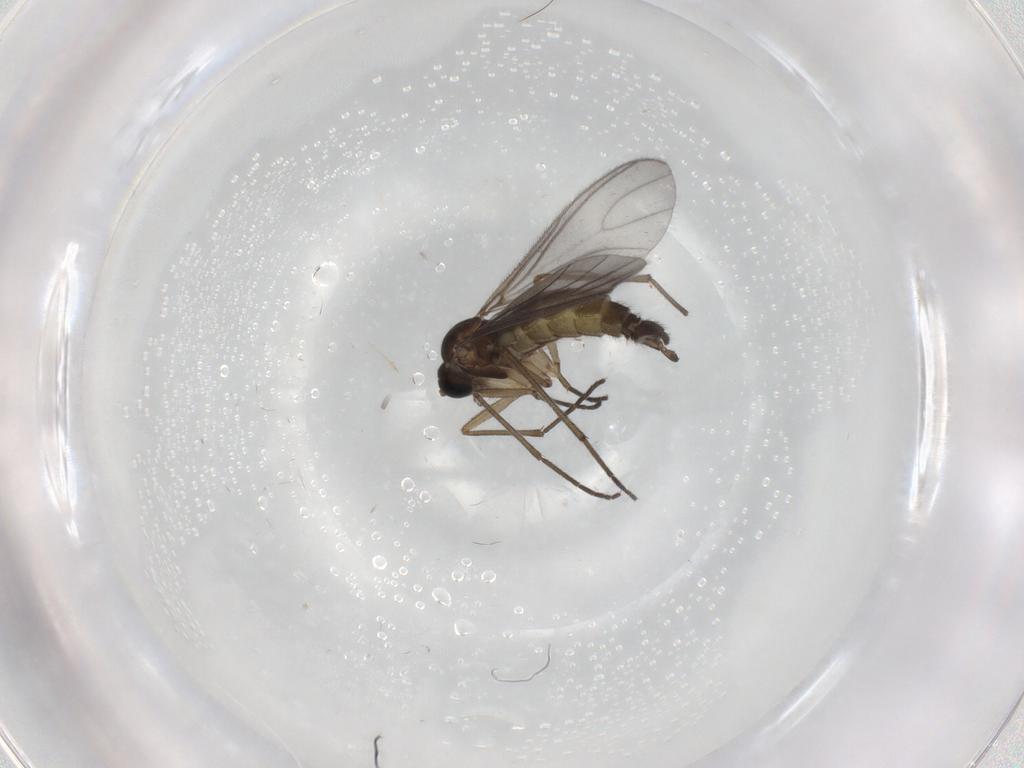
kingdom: Animalia
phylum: Arthropoda
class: Insecta
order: Diptera
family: Sciaridae
